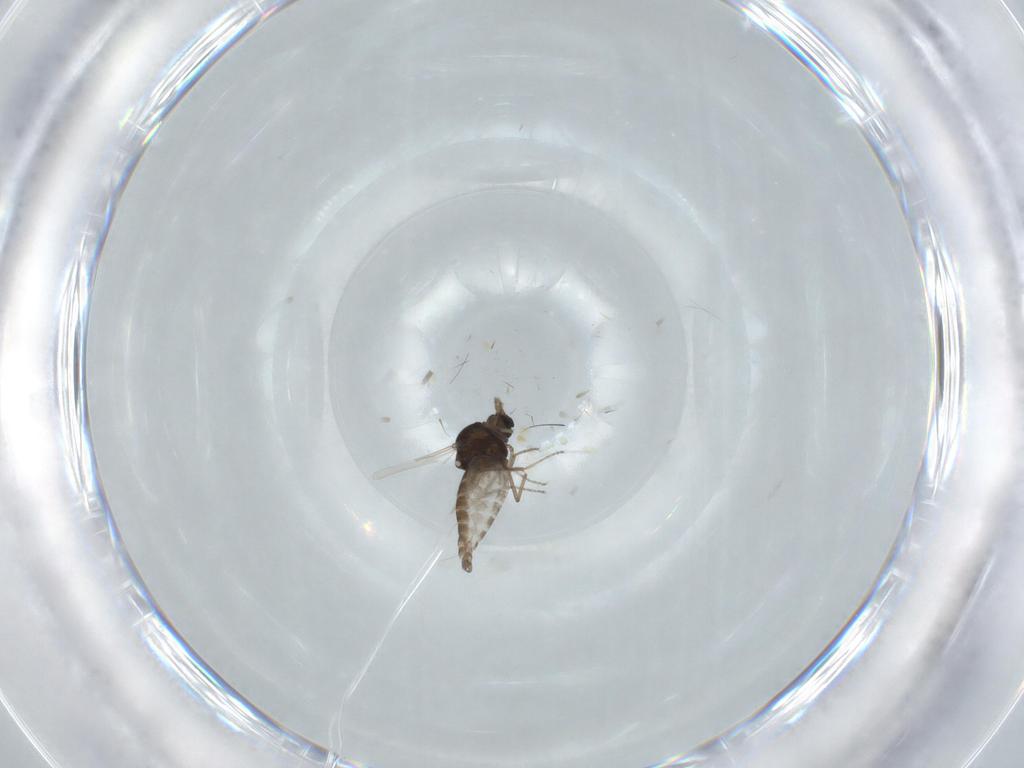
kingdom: Animalia
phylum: Arthropoda
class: Insecta
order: Diptera
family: Ceratopogonidae
